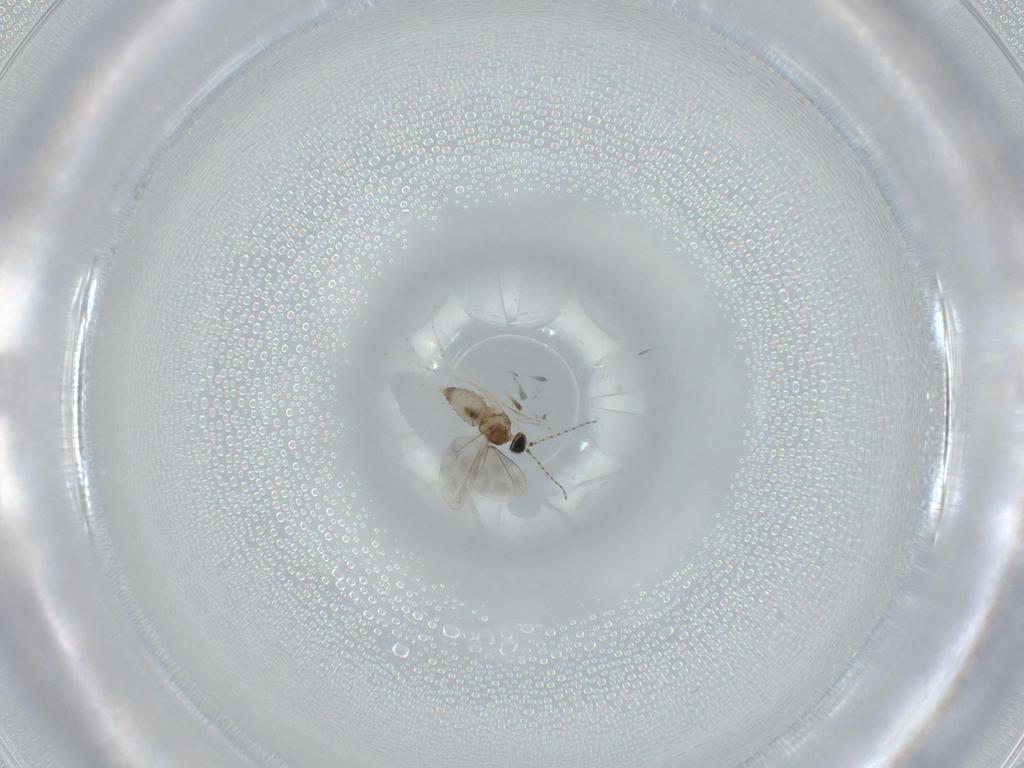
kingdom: Animalia
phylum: Arthropoda
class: Insecta
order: Diptera
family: Cecidomyiidae
